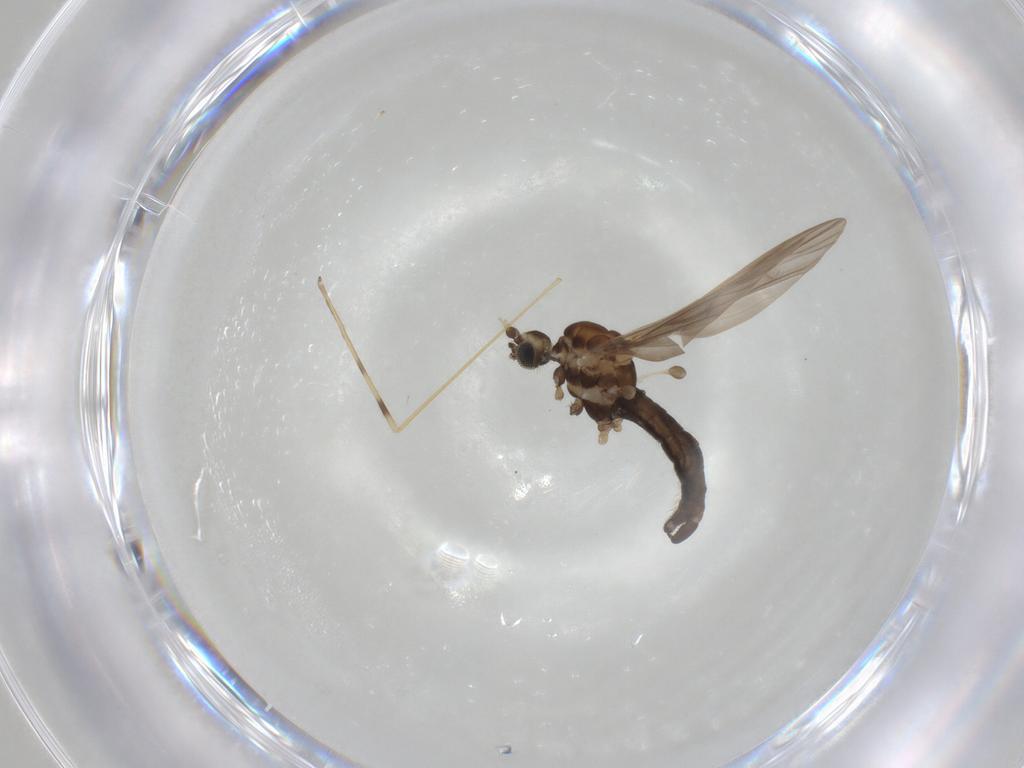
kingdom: Animalia
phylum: Arthropoda
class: Insecta
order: Diptera
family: Limoniidae
